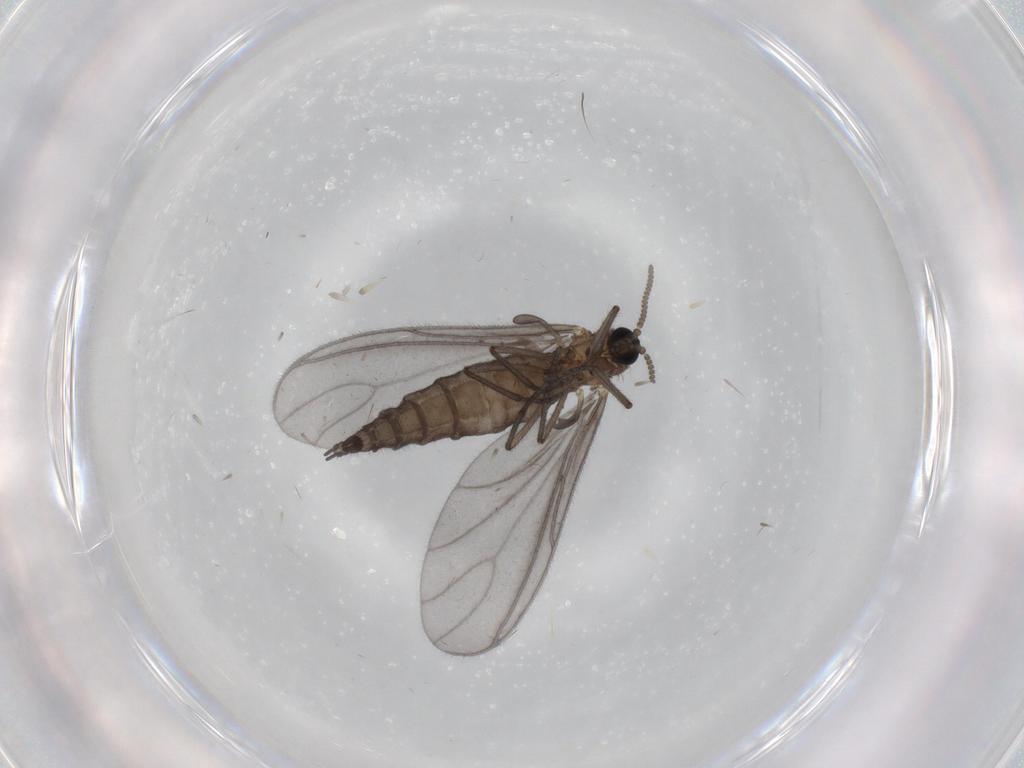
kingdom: Animalia
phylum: Arthropoda
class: Insecta
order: Diptera
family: Sciaridae
